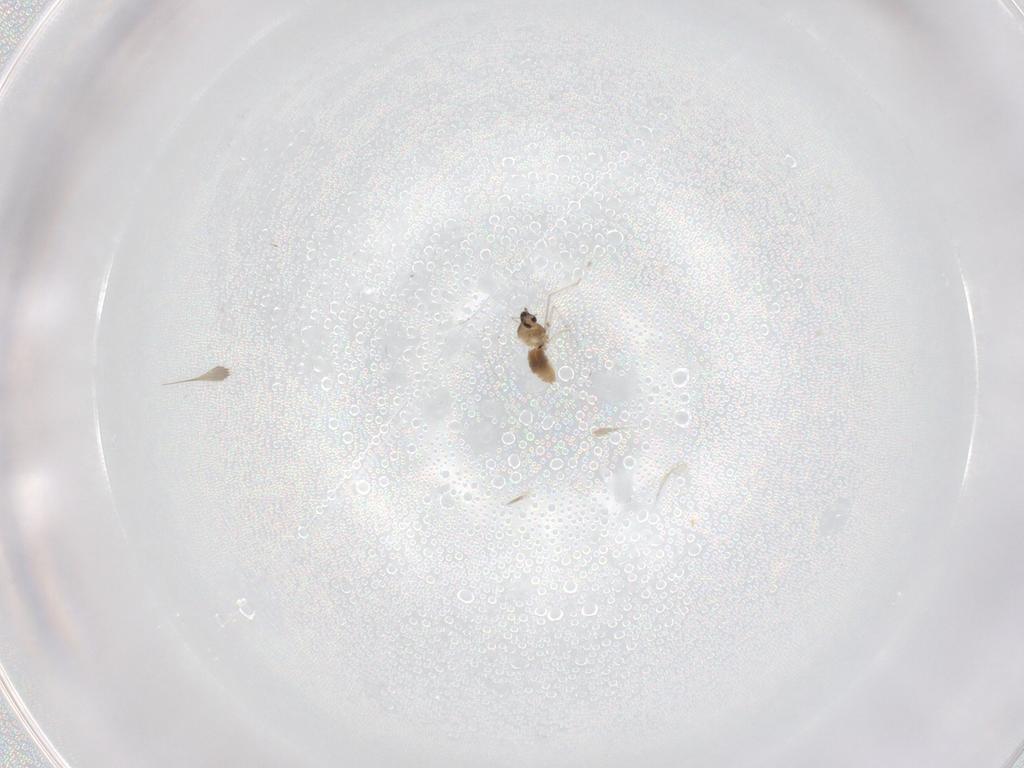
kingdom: Animalia
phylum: Arthropoda
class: Insecta
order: Diptera
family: Cecidomyiidae
